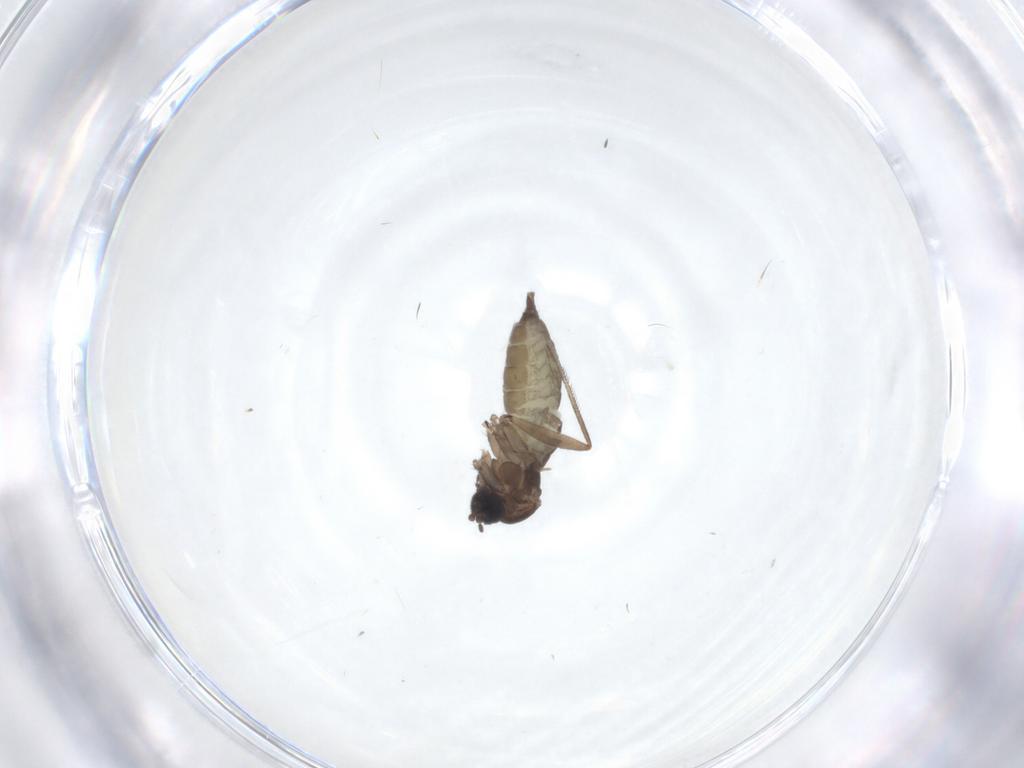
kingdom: Animalia
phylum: Arthropoda
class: Insecta
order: Diptera
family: Sciaridae
